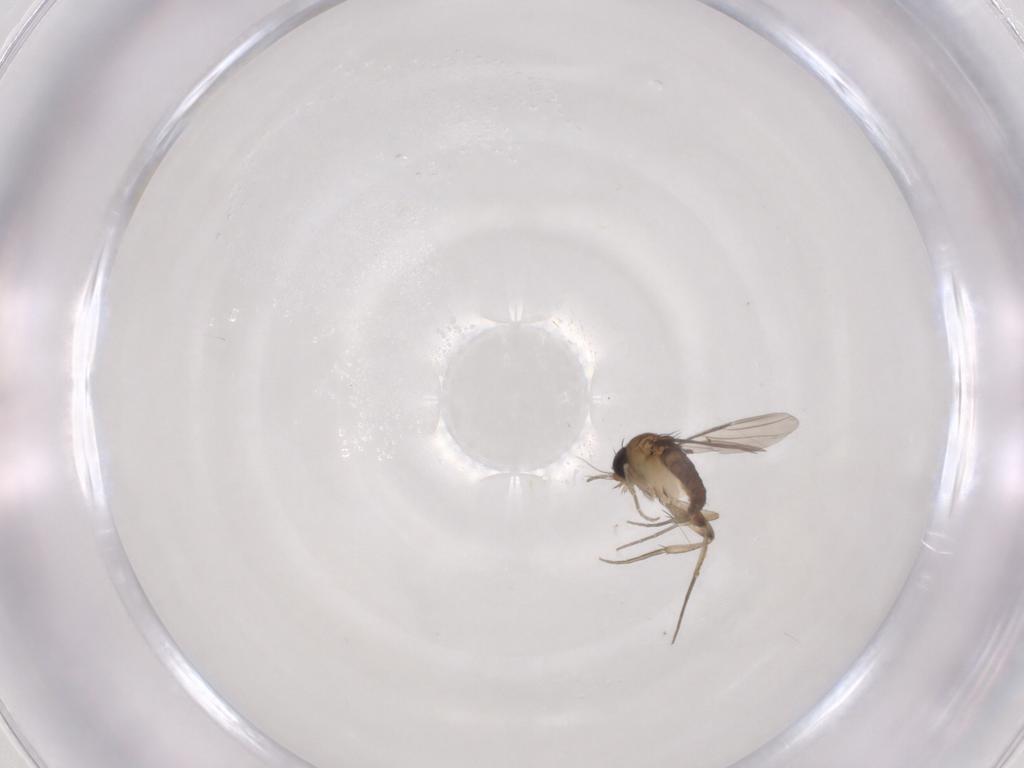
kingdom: Animalia
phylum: Arthropoda
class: Insecta
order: Diptera
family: Phoridae
